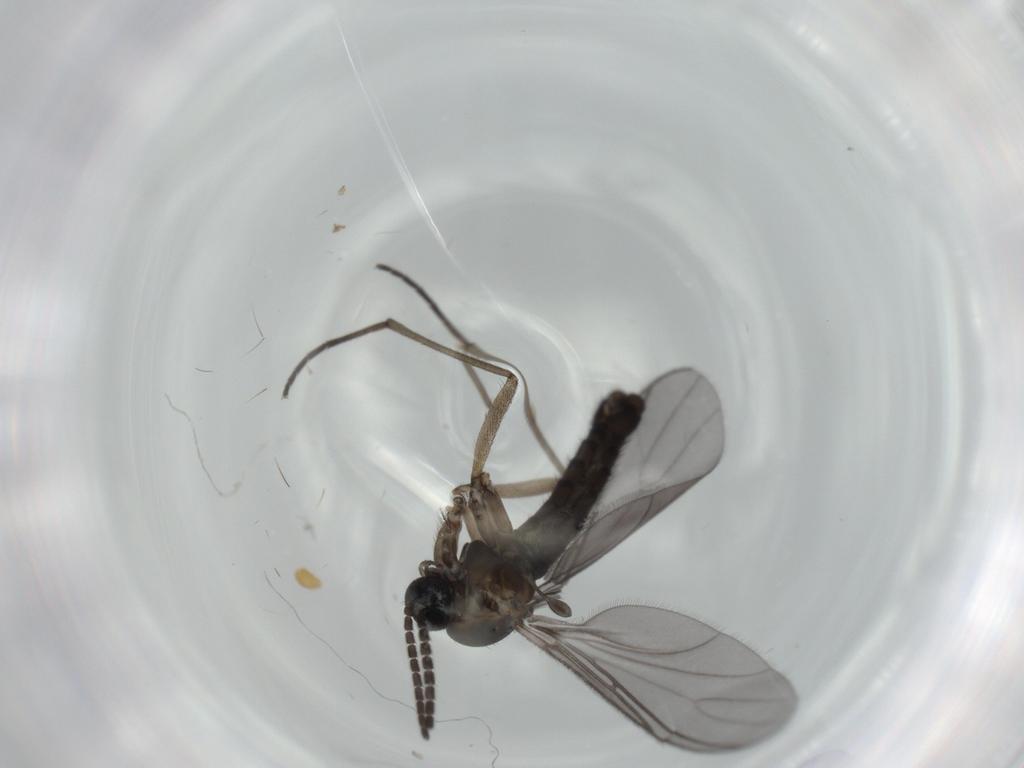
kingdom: Animalia
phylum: Arthropoda
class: Insecta
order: Diptera
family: Sciaridae
